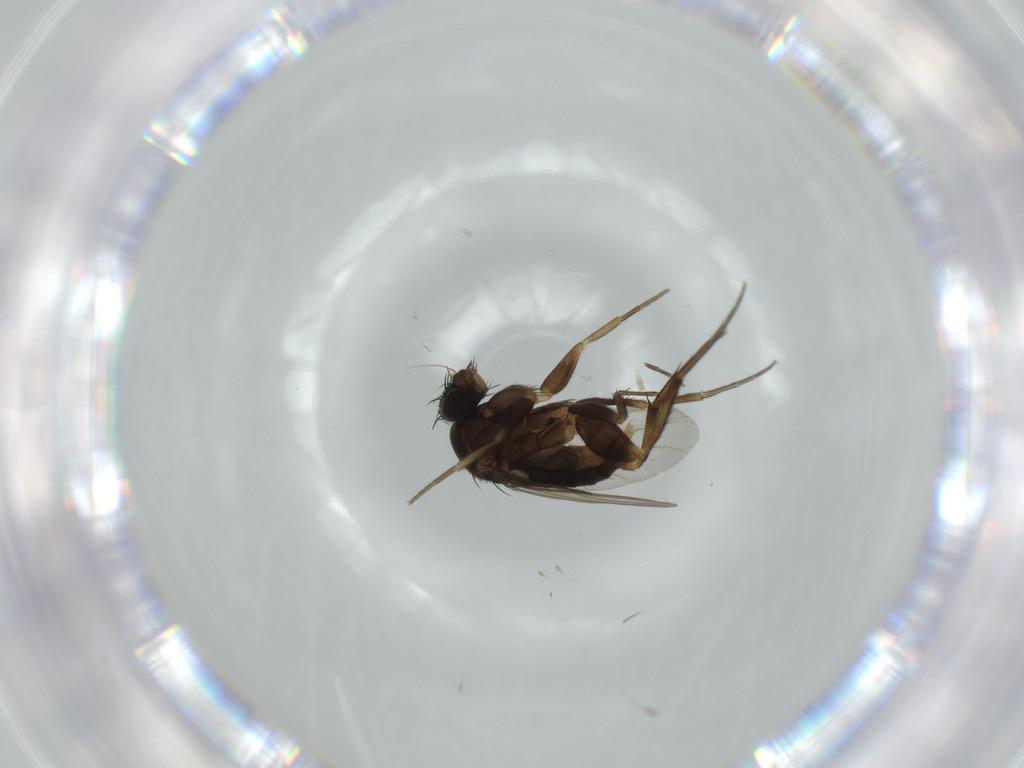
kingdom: Animalia
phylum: Arthropoda
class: Insecta
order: Diptera
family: Phoridae
